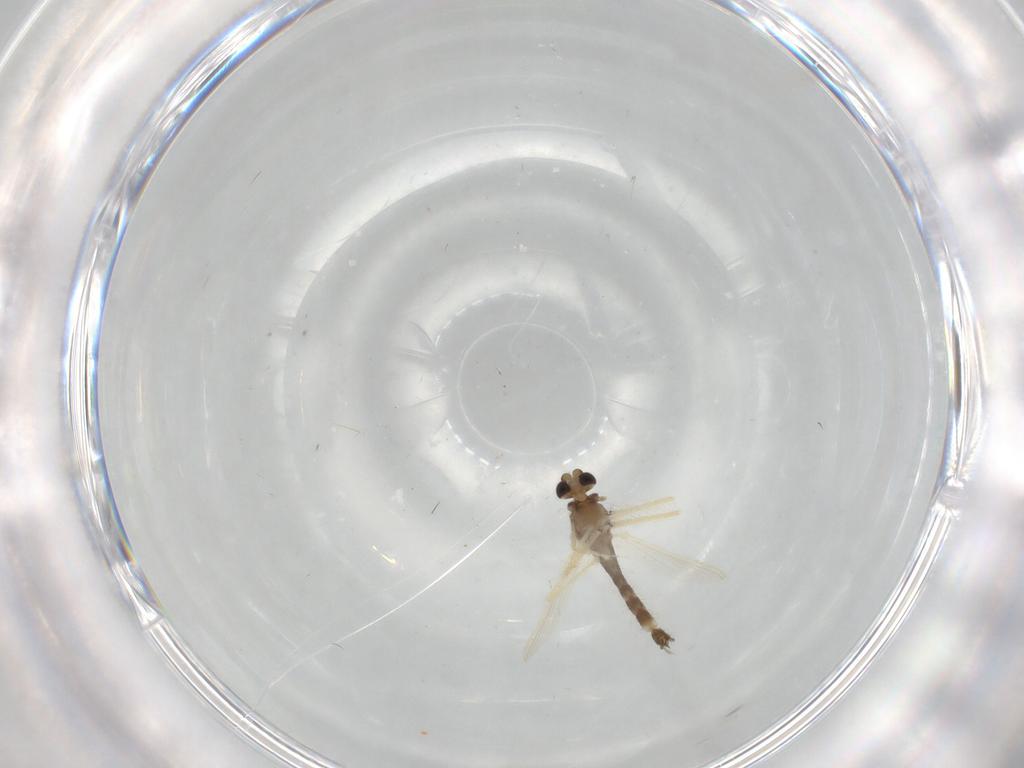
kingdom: Animalia
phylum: Arthropoda
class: Insecta
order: Diptera
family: Chironomidae
